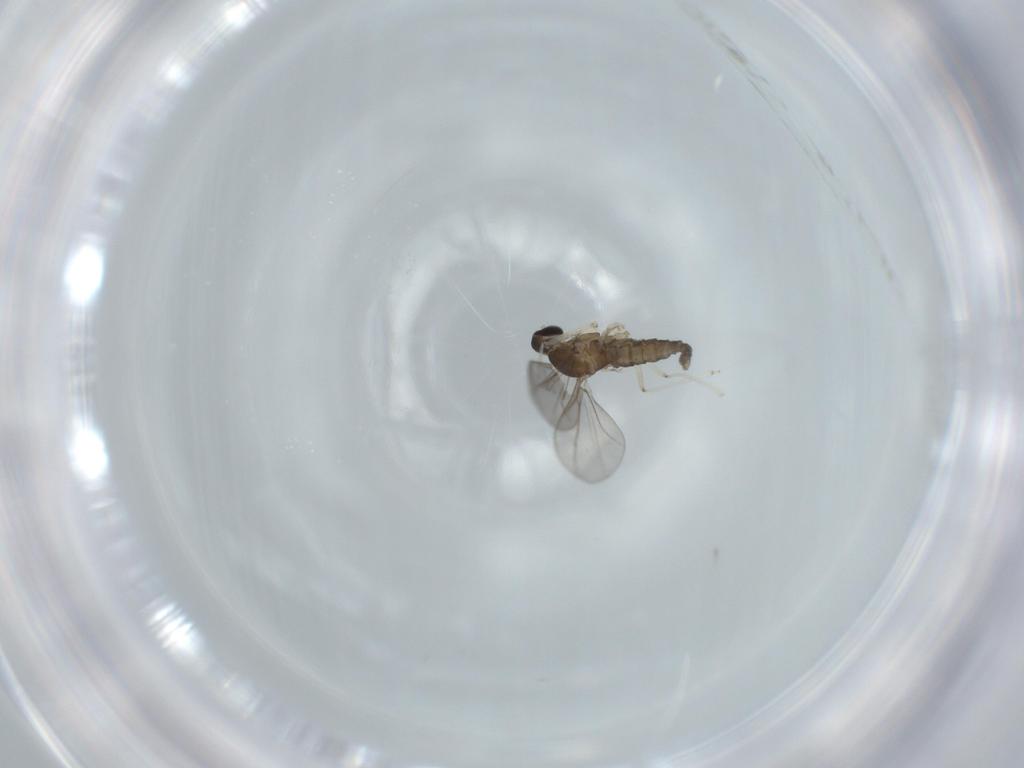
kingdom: Animalia
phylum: Arthropoda
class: Insecta
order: Diptera
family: Cecidomyiidae
